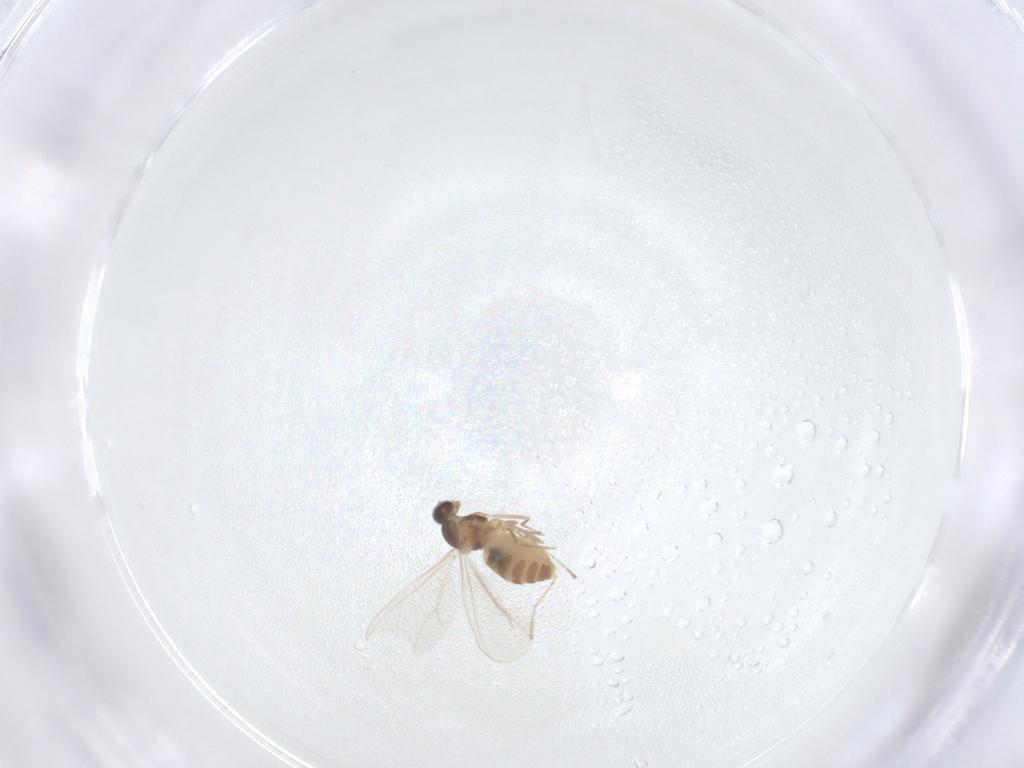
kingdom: Animalia
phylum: Arthropoda
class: Insecta
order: Diptera
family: Cecidomyiidae
